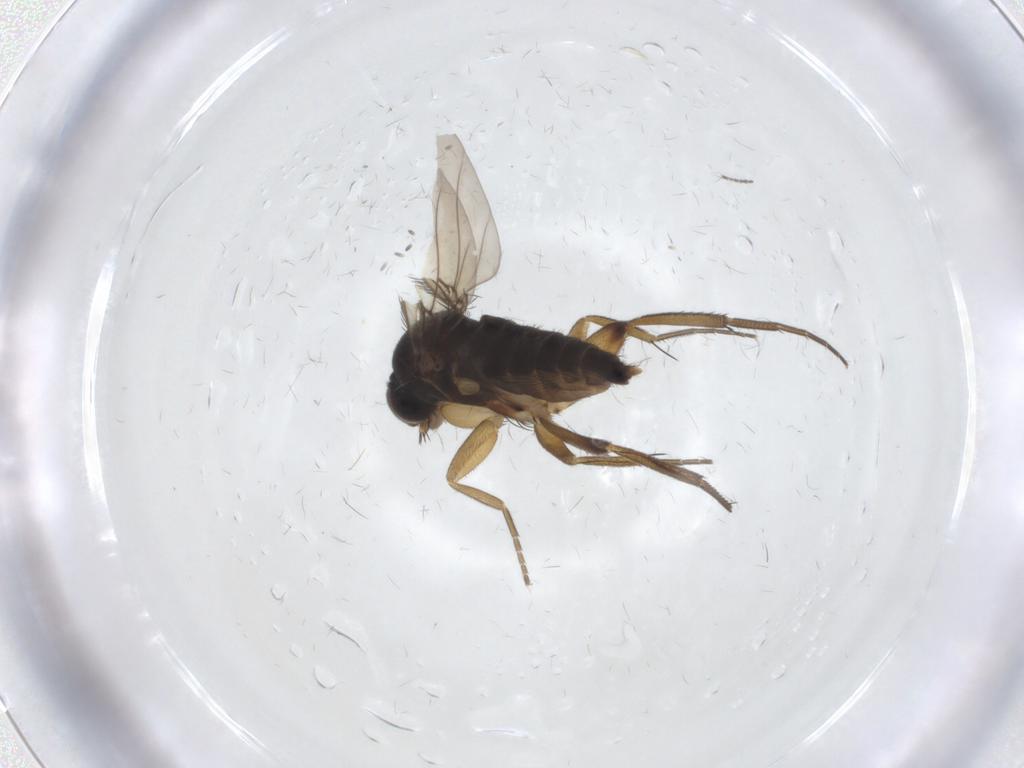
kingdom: Animalia
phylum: Arthropoda
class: Insecta
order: Diptera
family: Phoridae
